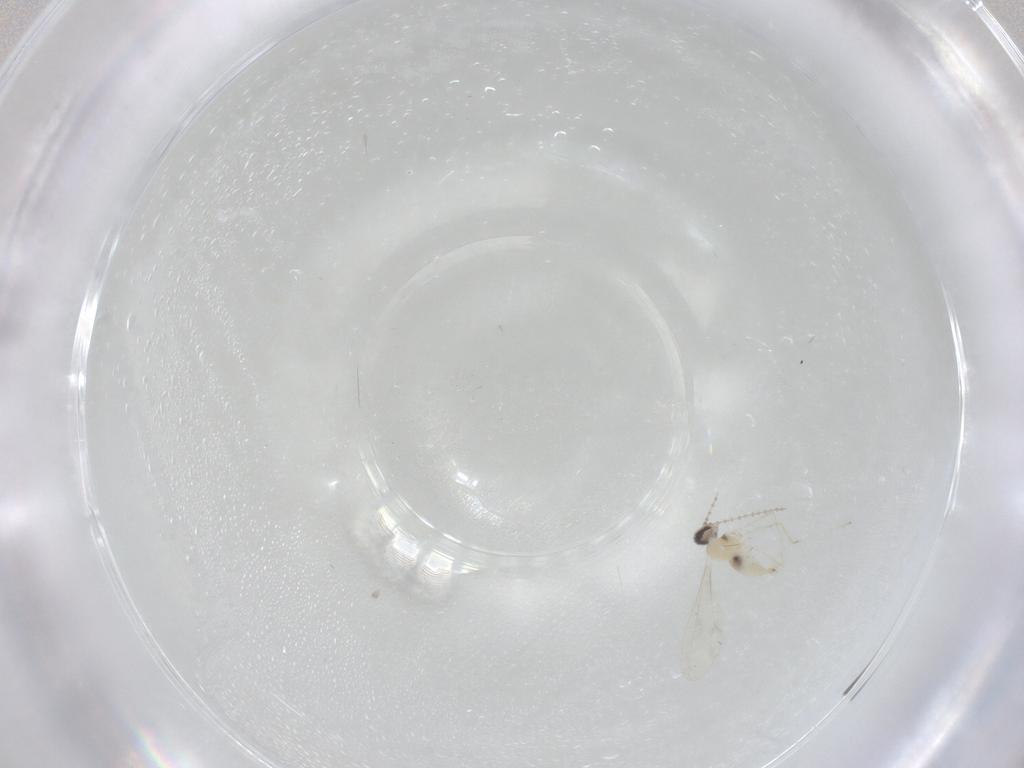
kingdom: Animalia
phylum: Arthropoda
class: Insecta
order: Diptera
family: Cecidomyiidae
